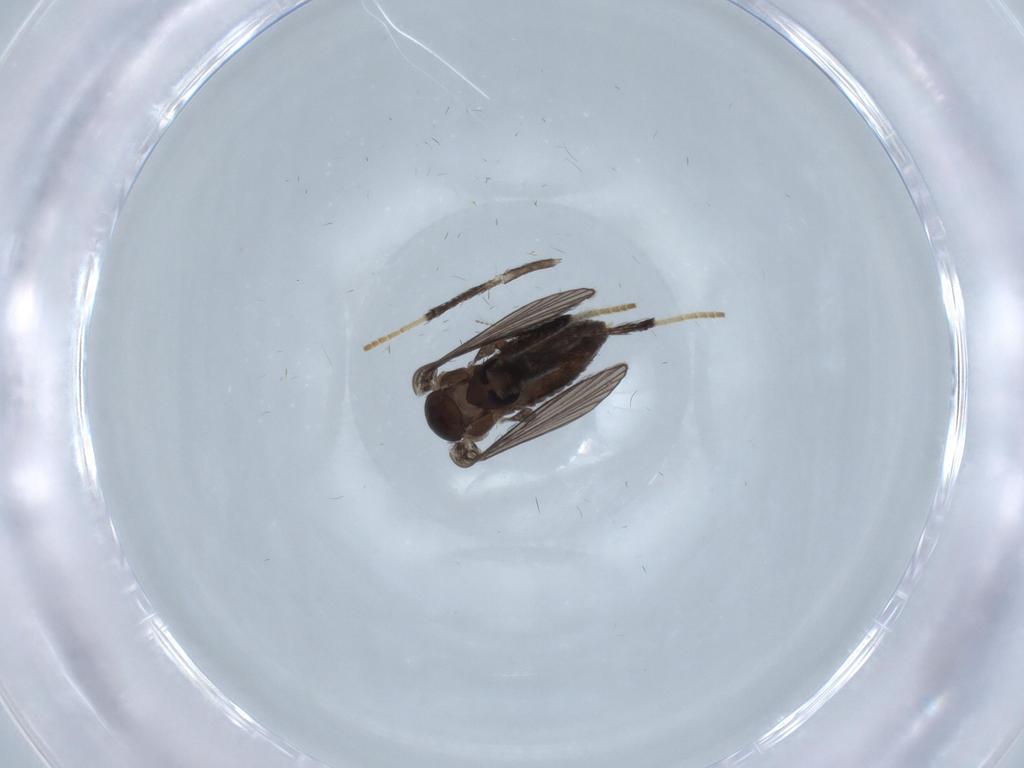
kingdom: Animalia
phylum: Arthropoda
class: Insecta
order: Diptera
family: Psychodidae
